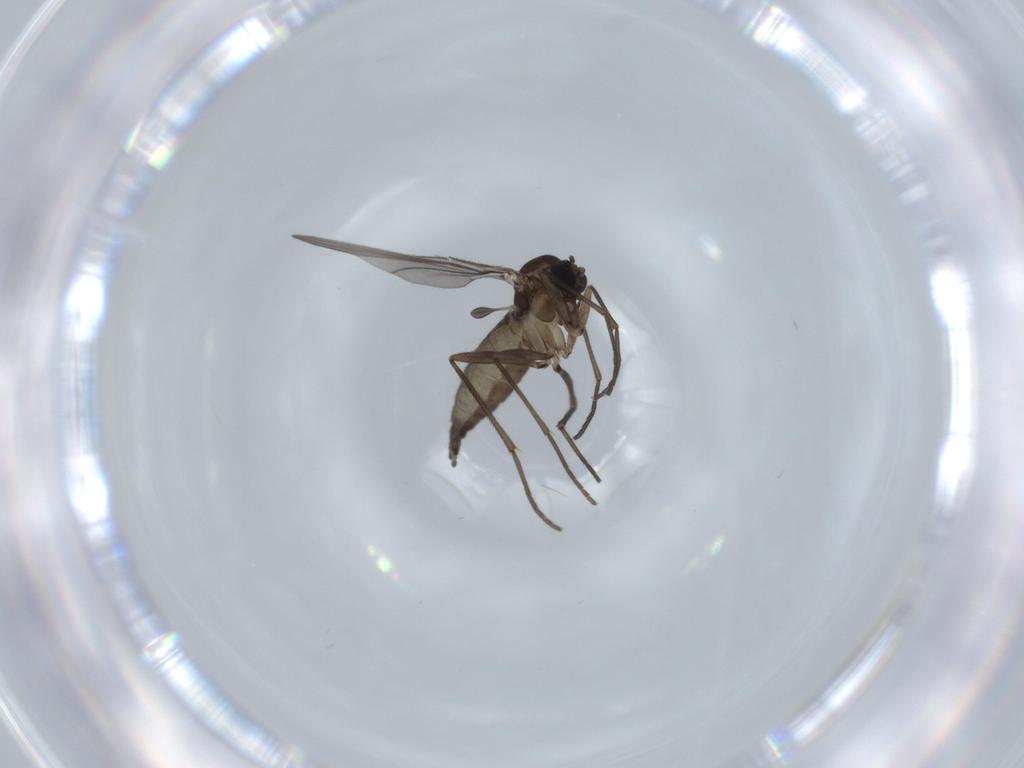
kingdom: Animalia
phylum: Arthropoda
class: Insecta
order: Diptera
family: Sciaridae
